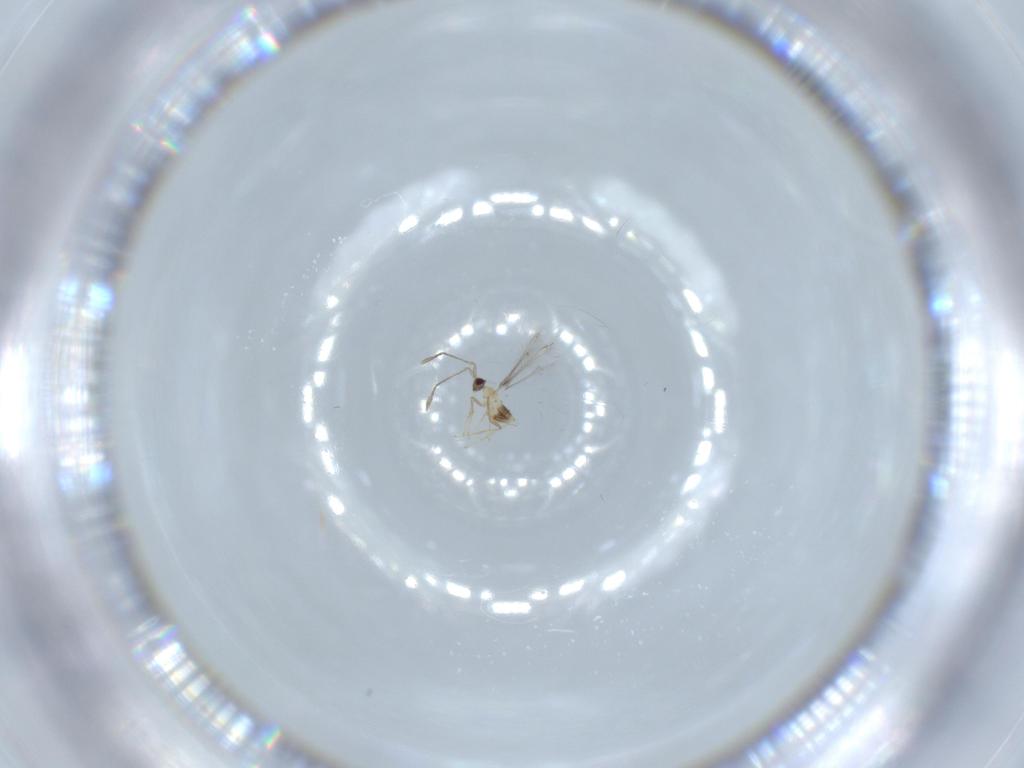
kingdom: Animalia
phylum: Arthropoda
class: Insecta
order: Hymenoptera
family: Mymaridae
